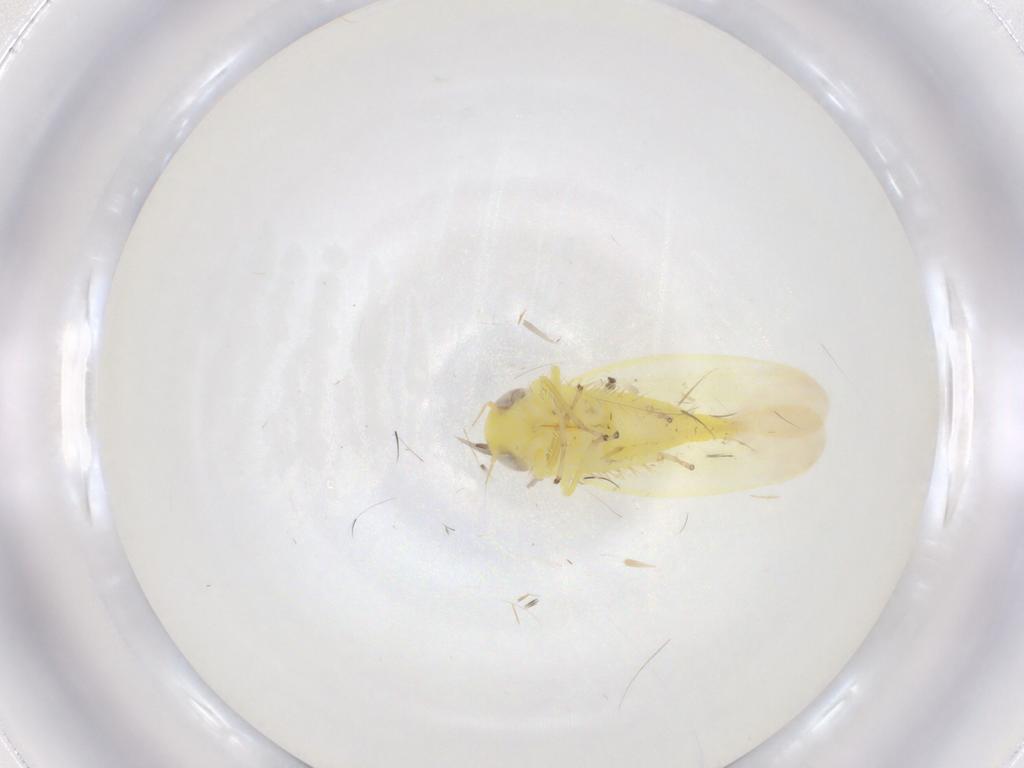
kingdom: Animalia
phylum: Arthropoda
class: Insecta
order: Hemiptera
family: Cicadellidae
